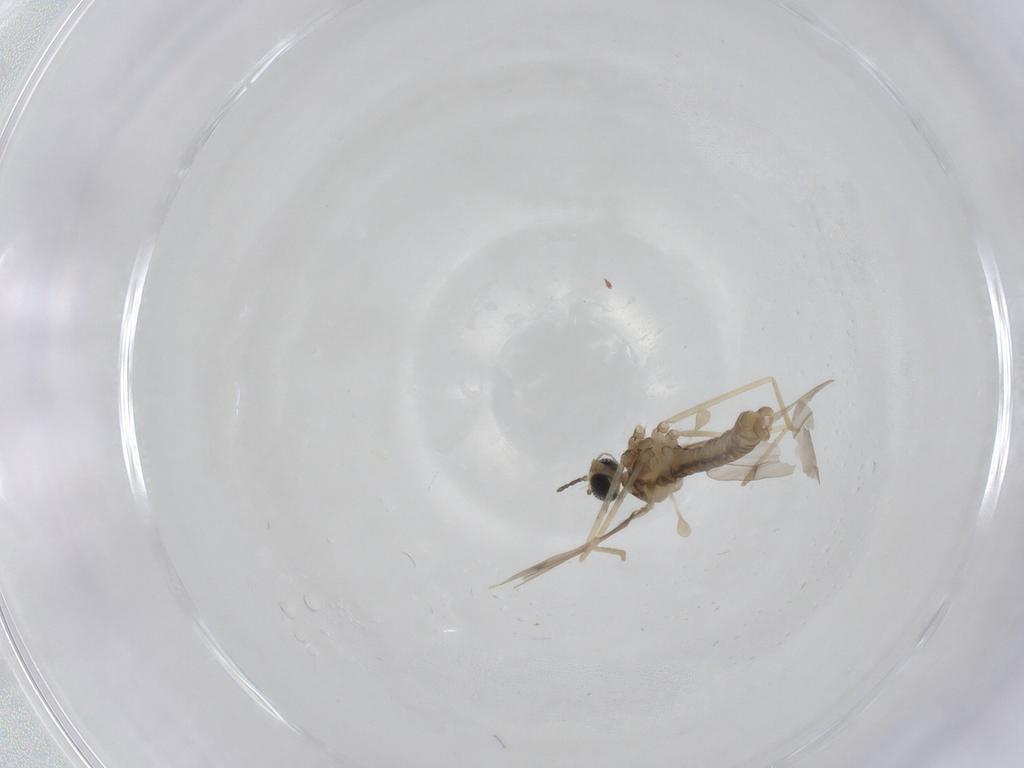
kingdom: Animalia
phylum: Arthropoda
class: Insecta
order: Diptera
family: Cecidomyiidae
